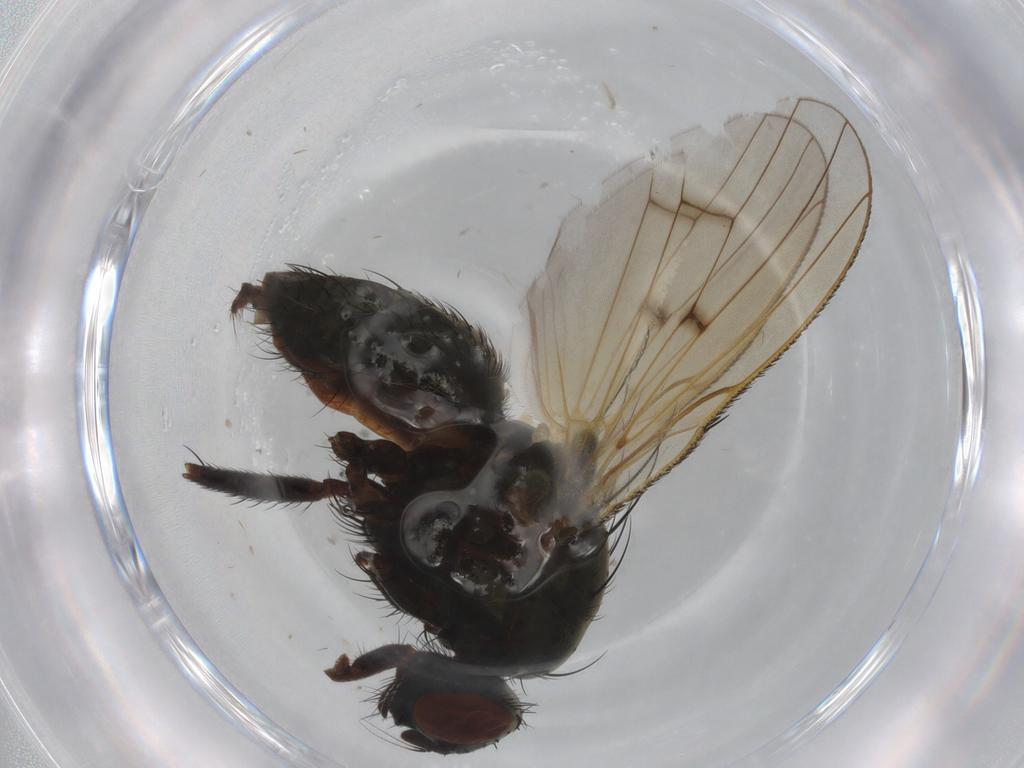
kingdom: Animalia
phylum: Arthropoda
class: Insecta
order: Diptera
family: Anthomyiidae
